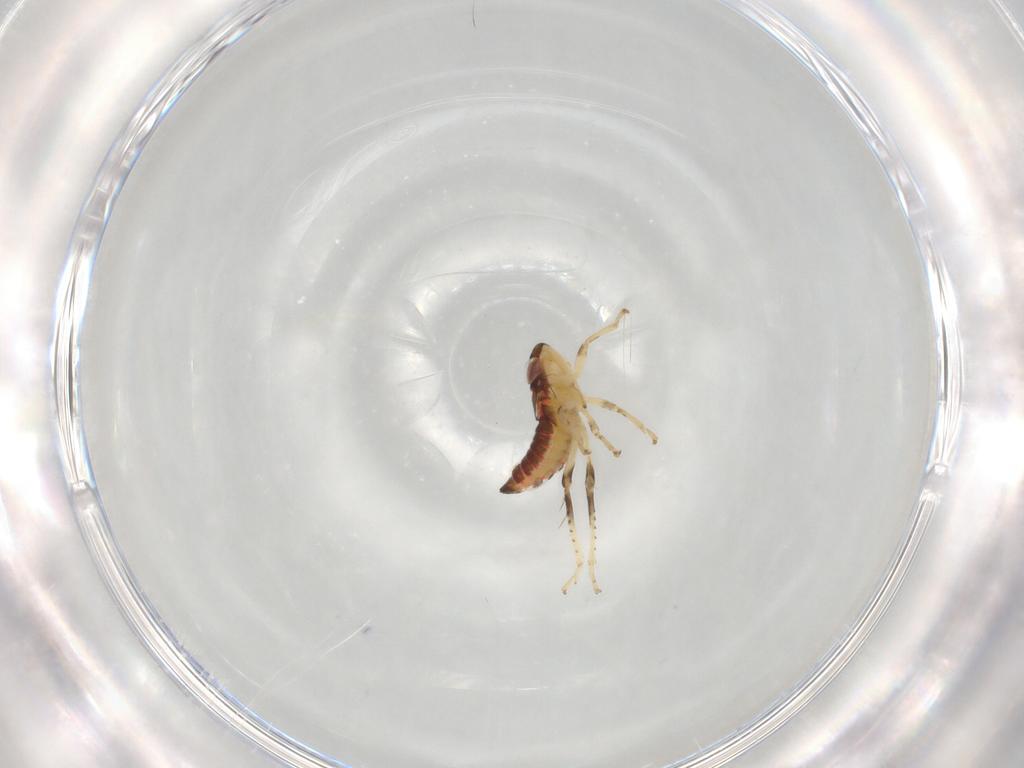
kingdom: Animalia
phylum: Arthropoda
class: Insecta
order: Hemiptera
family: Cicadellidae
